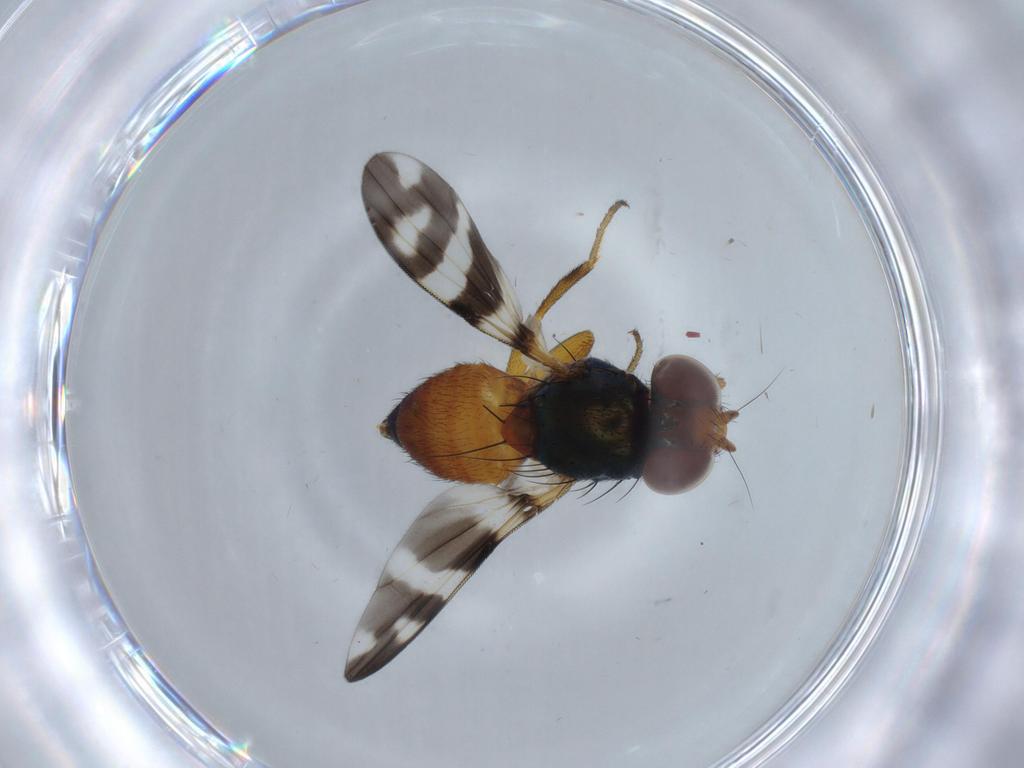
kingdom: Animalia
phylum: Arthropoda
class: Insecta
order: Diptera
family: Ulidiidae
